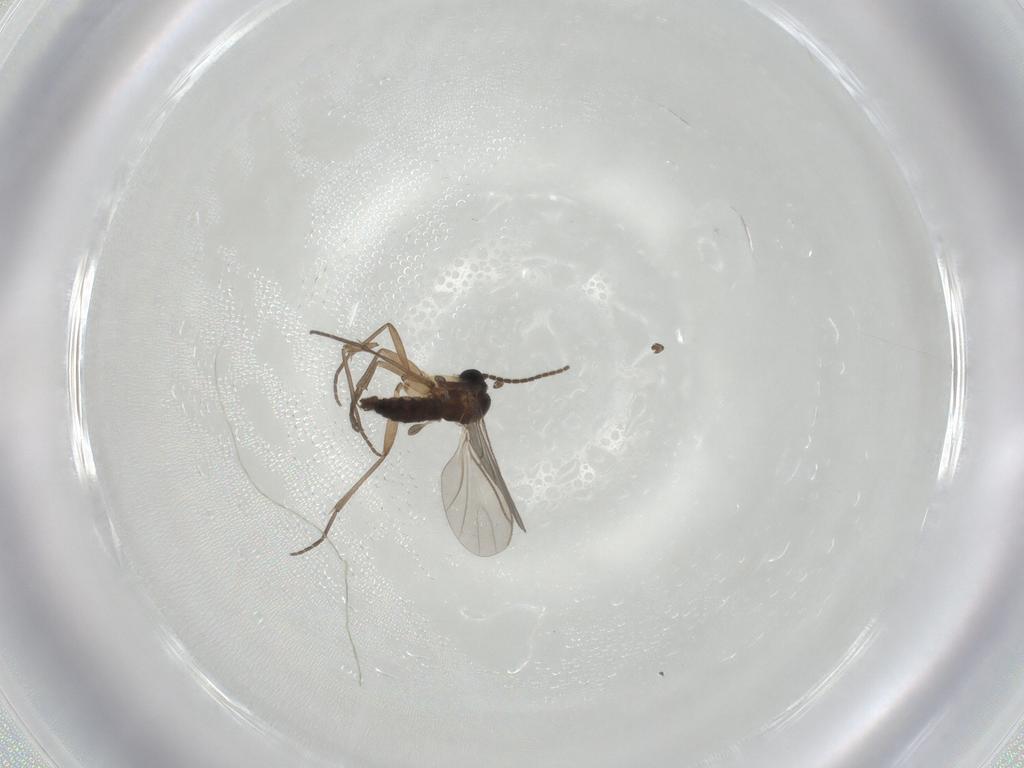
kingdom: Animalia
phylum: Arthropoda
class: Insecta
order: Diptera
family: Sciaridae
